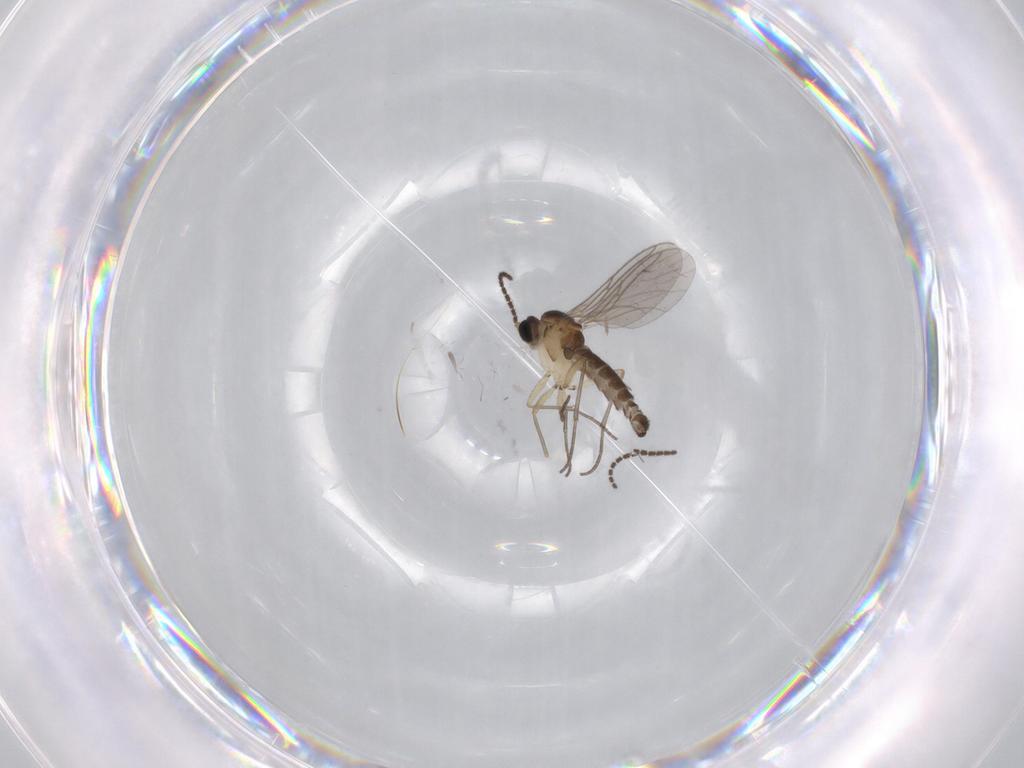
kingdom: Animalia
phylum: Arthropoda
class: Insecta
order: Diptera
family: Sciaridae
